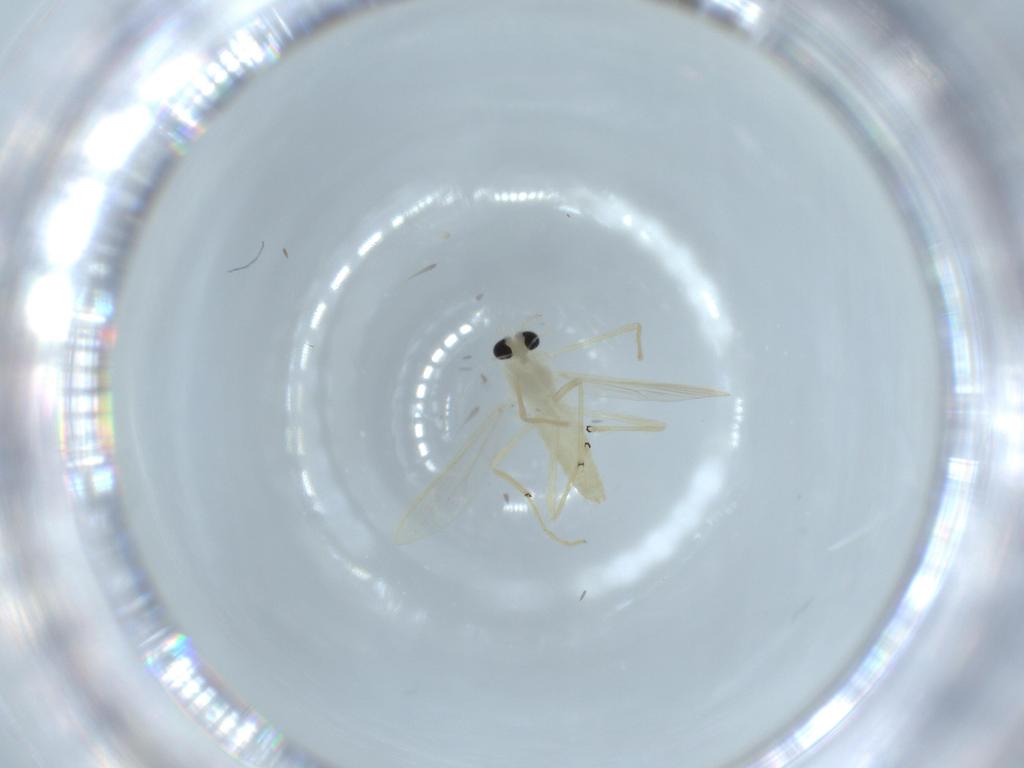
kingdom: Animalia
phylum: Arthropoda
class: Insecta
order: Diptera
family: Chironomidae
